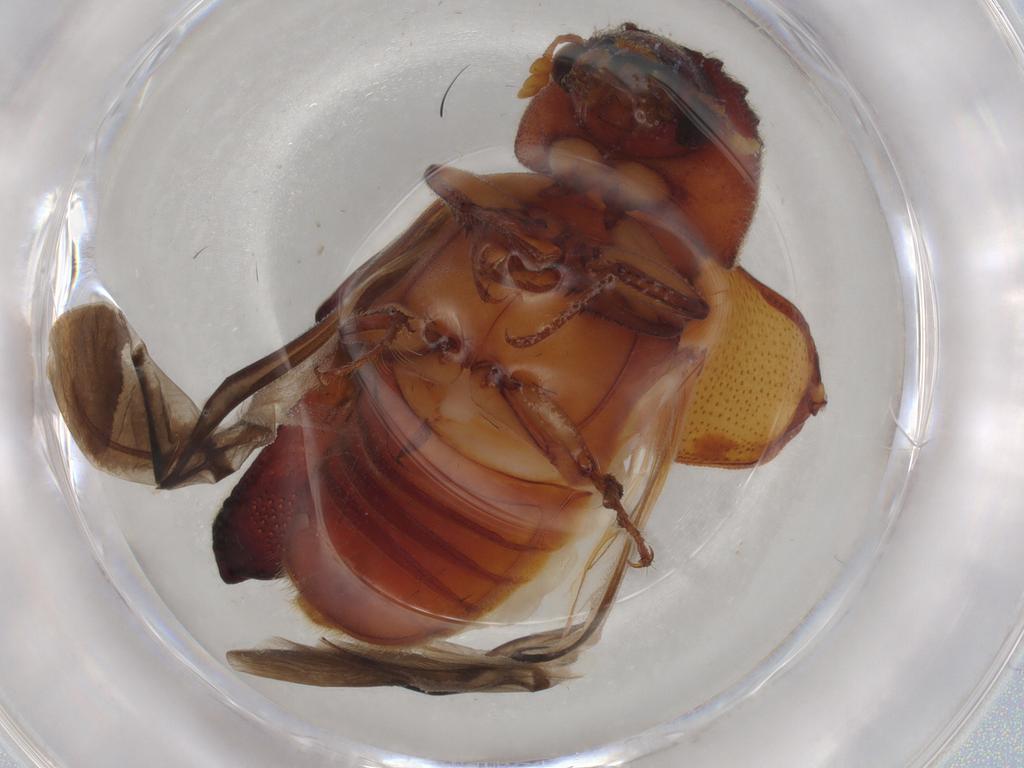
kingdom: Animalia
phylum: Arthropoda
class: Insecta
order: Coleoptera
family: Bostrichidae
